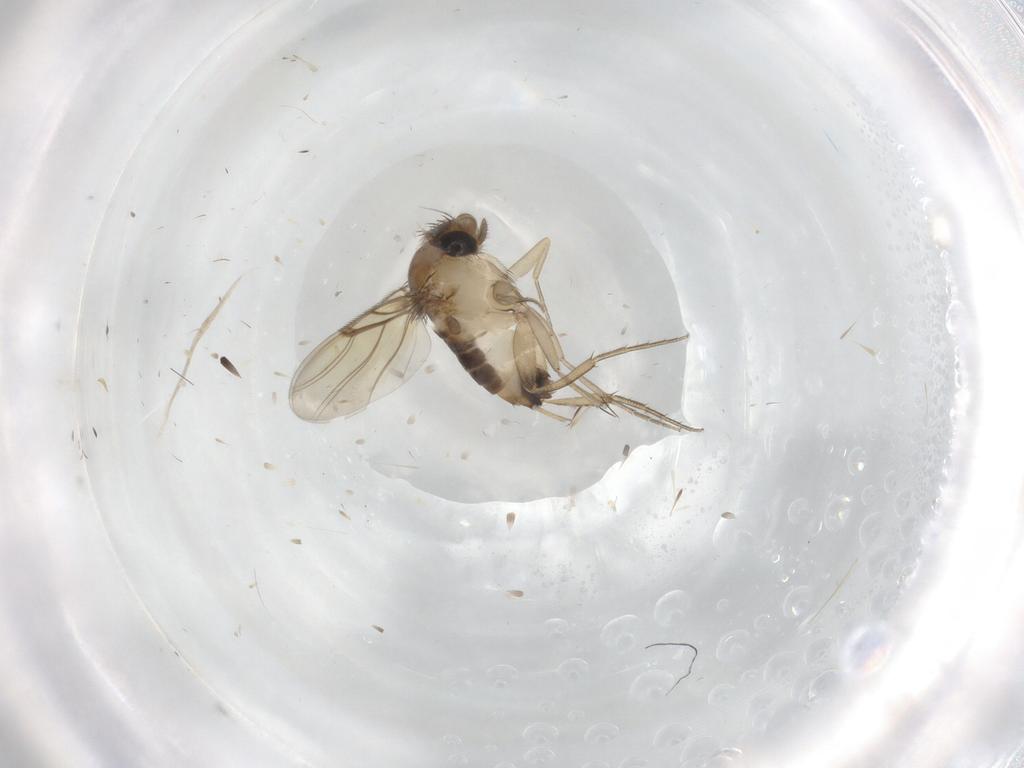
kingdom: Animalia
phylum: Arthropoda
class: Insecta
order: Diptera
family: Phoridae
